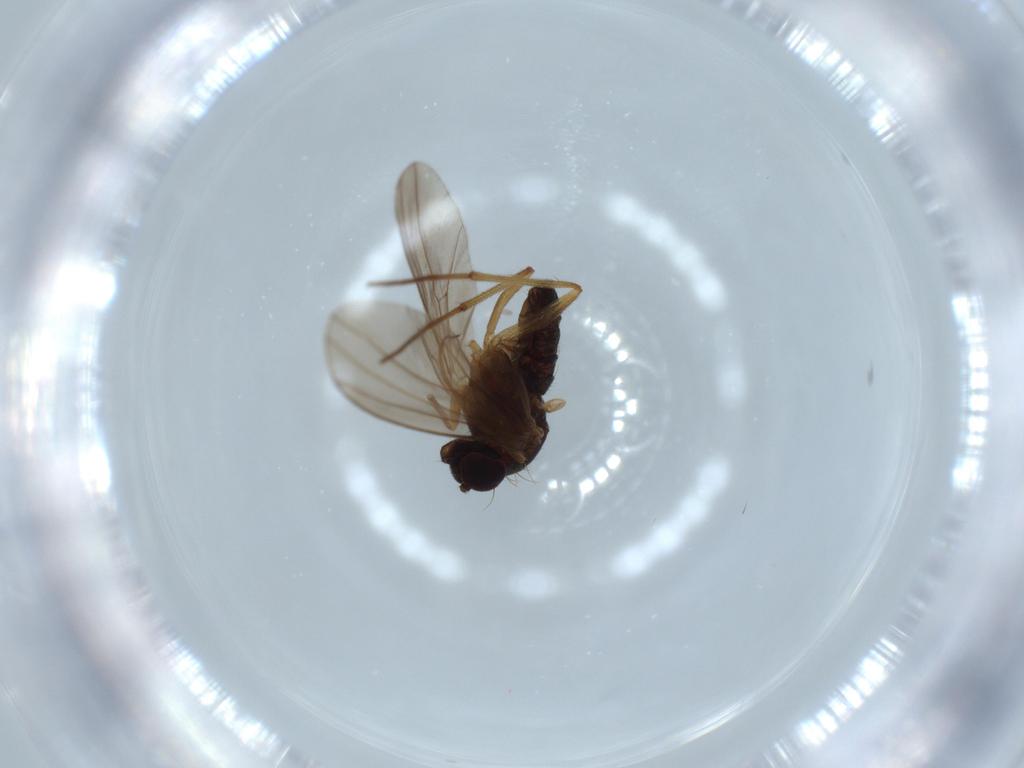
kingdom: Animalia
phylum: Arthropoda
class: Insecta
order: Diptera
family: Dolichopodidae
